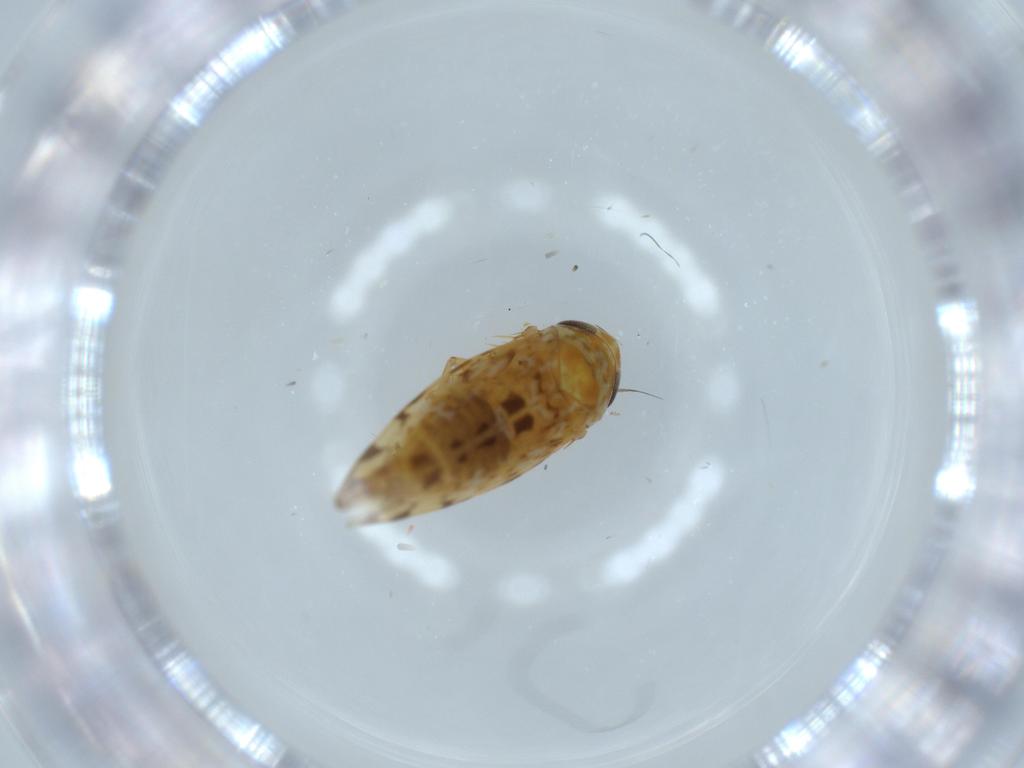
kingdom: Animalia
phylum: Arthropoda
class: Insecta
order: Hemiptera
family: Cicadellidae
